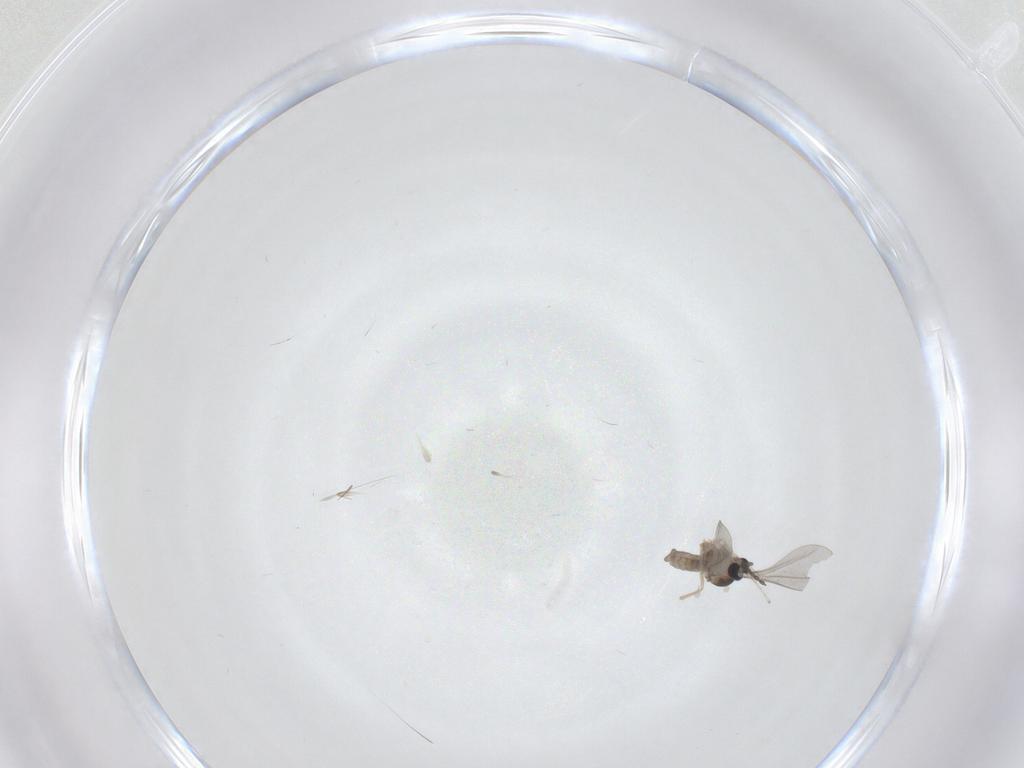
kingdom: Animalia
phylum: Arthropoda
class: Insecta
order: Diptera
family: Cecidomyiidae
